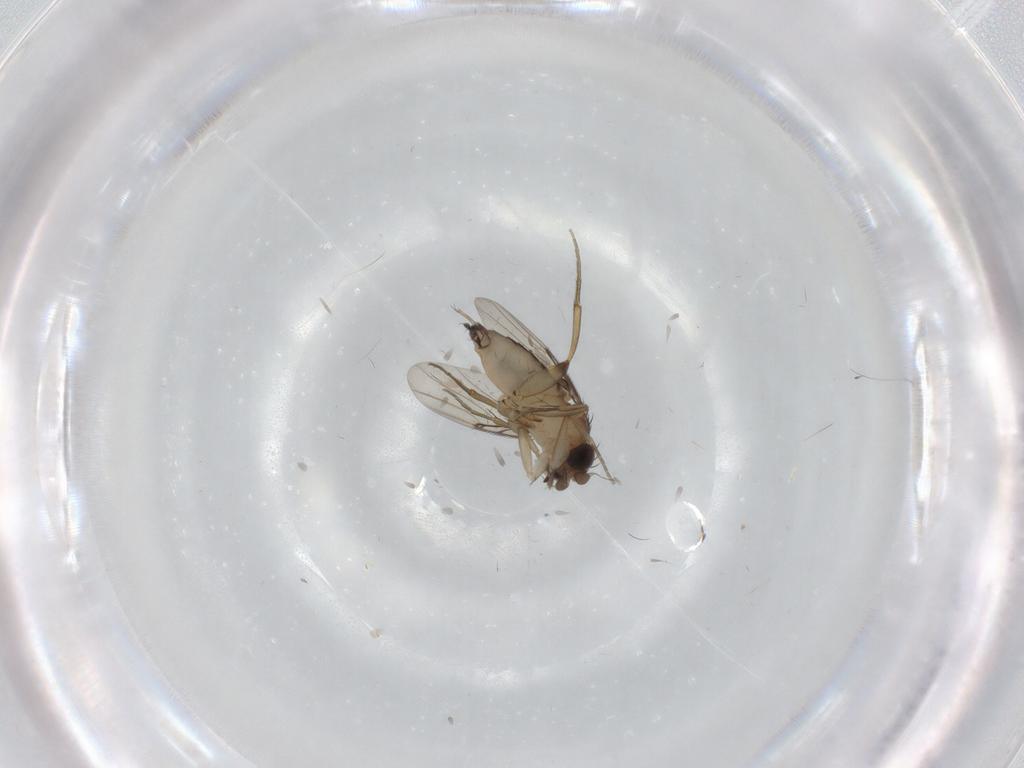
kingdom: Animalia
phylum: Arthropoda
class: Insecta
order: Diptera
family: Phoridae
